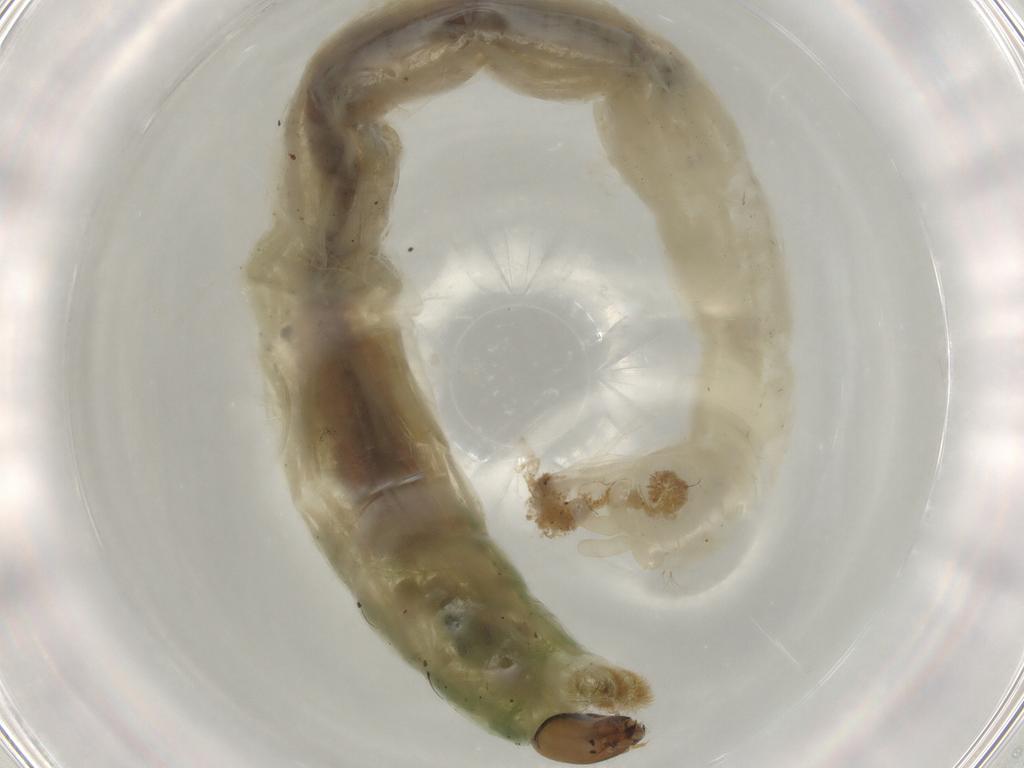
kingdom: Animalia
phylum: Arthropoda
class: Insecta
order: Diptera
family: Chironomidae
